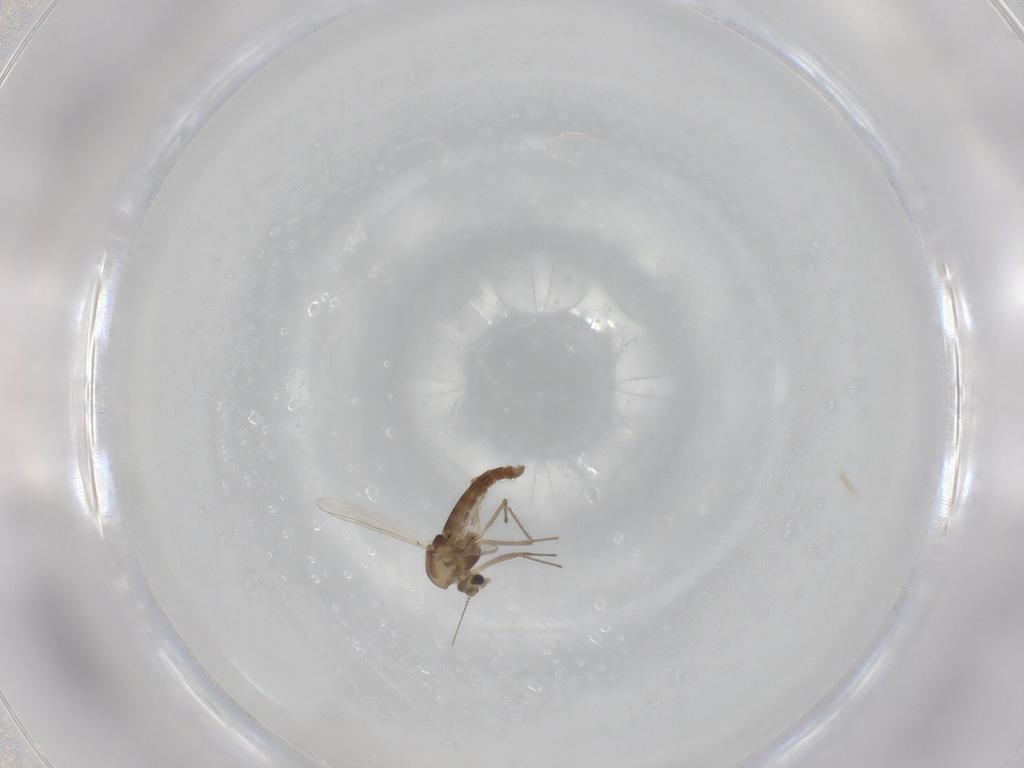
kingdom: Animalia
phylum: Arthropoda
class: Insecta
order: Diptera
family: Chironomidae
